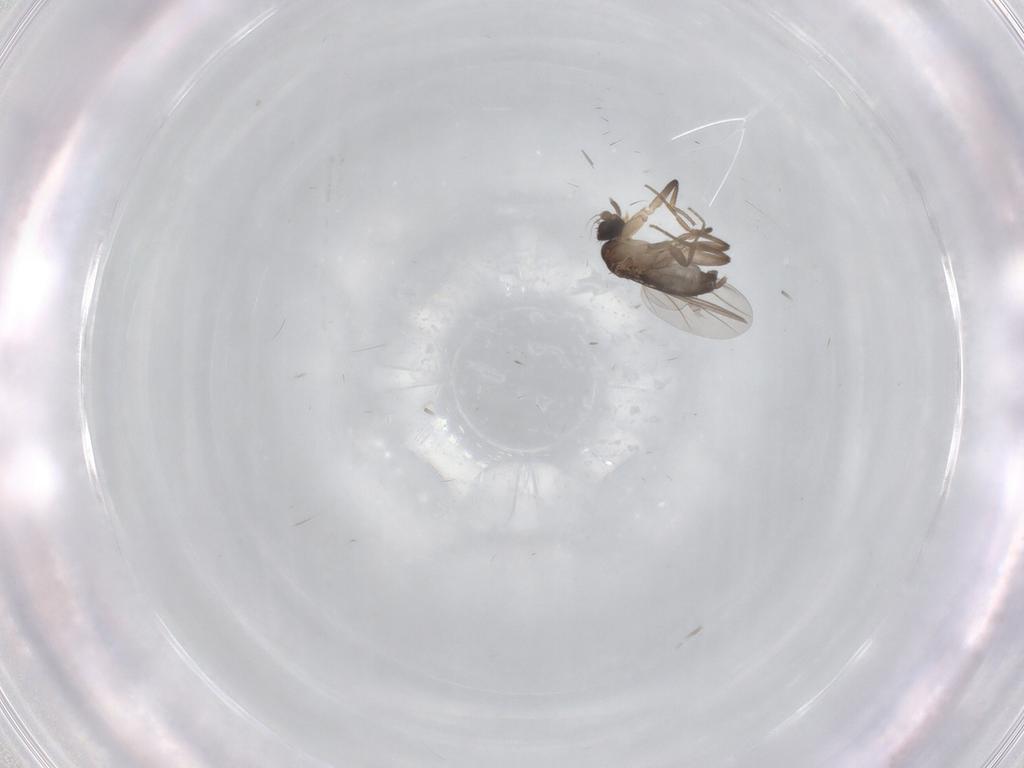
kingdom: Animalia
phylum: Arthropoda
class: Insecta
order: Diptera
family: Phoridae
